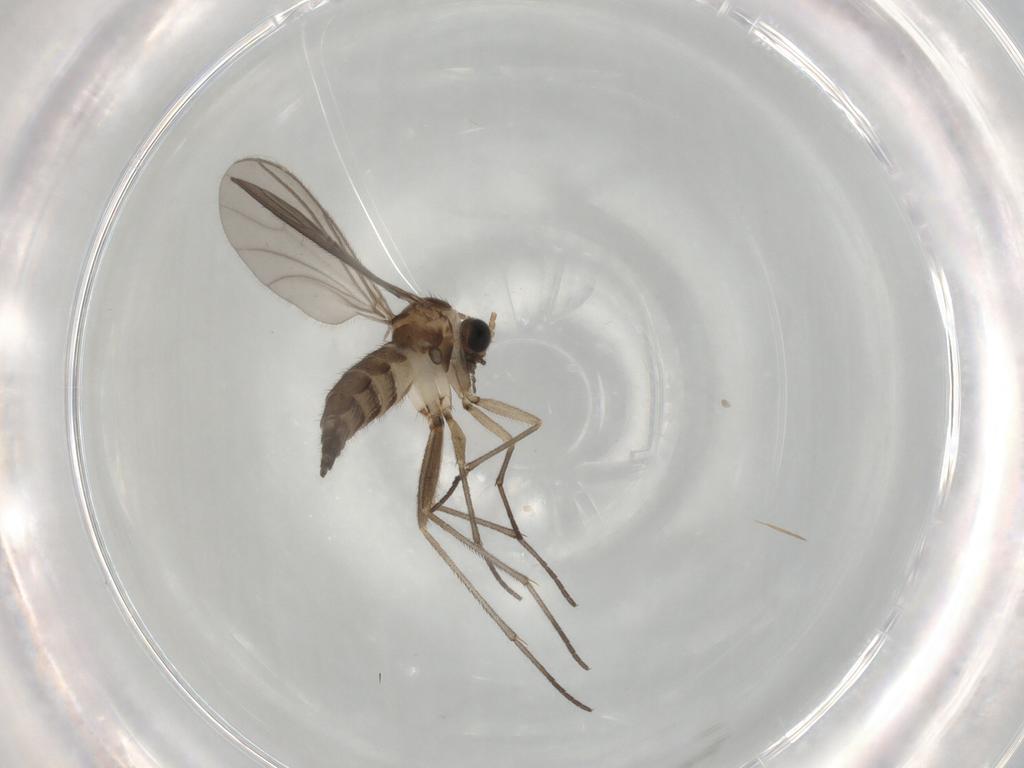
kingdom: Animalia
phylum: Arthropoda
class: Insecta
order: Diptera
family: Sciaridae
